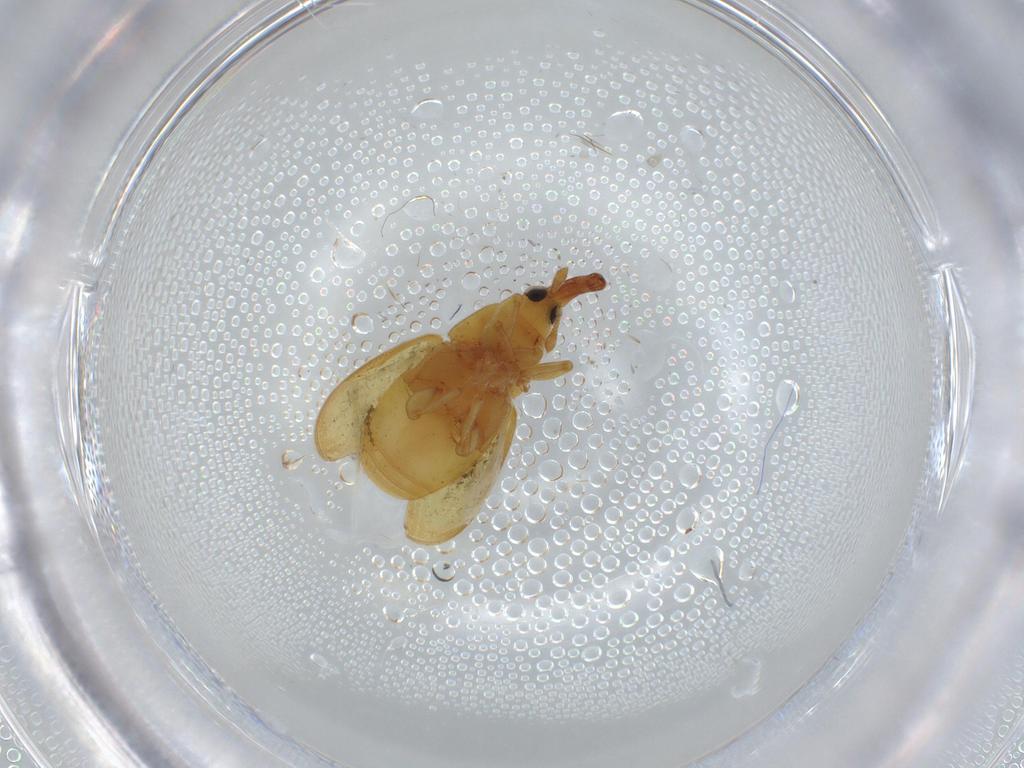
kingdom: Animalia
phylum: Arthropoda
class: Insecta
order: Coleoptera
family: Curculionidae
